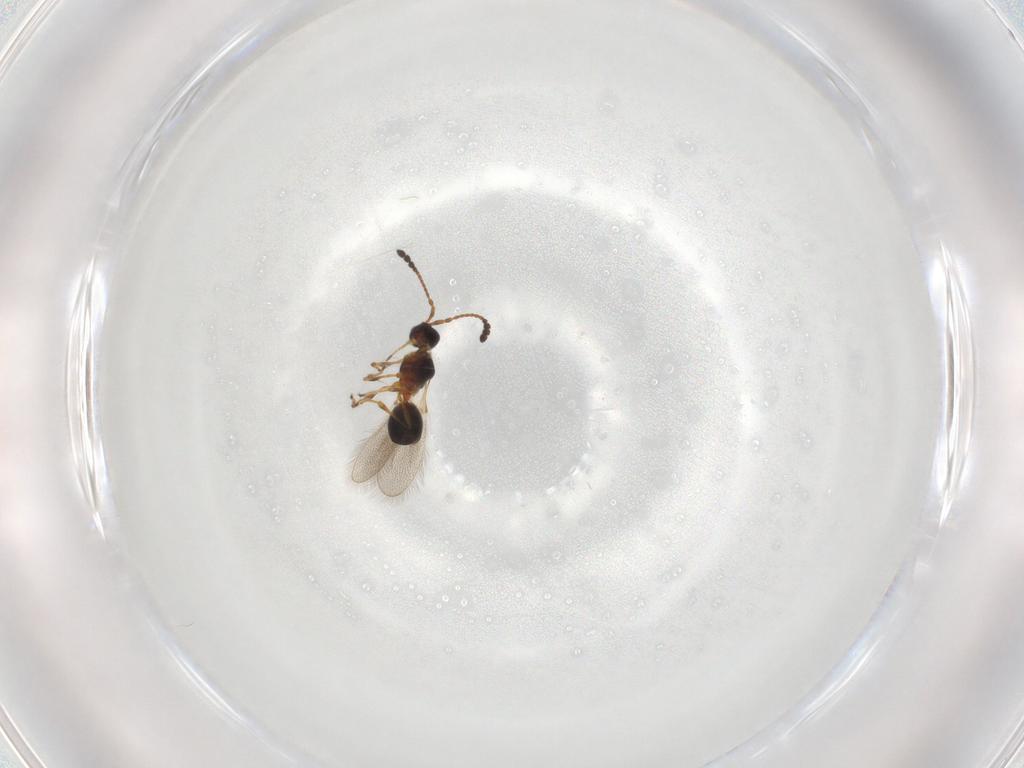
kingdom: Animalia
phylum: Arthropoda
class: Insecta
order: Hymenoptera
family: Diapriidae
